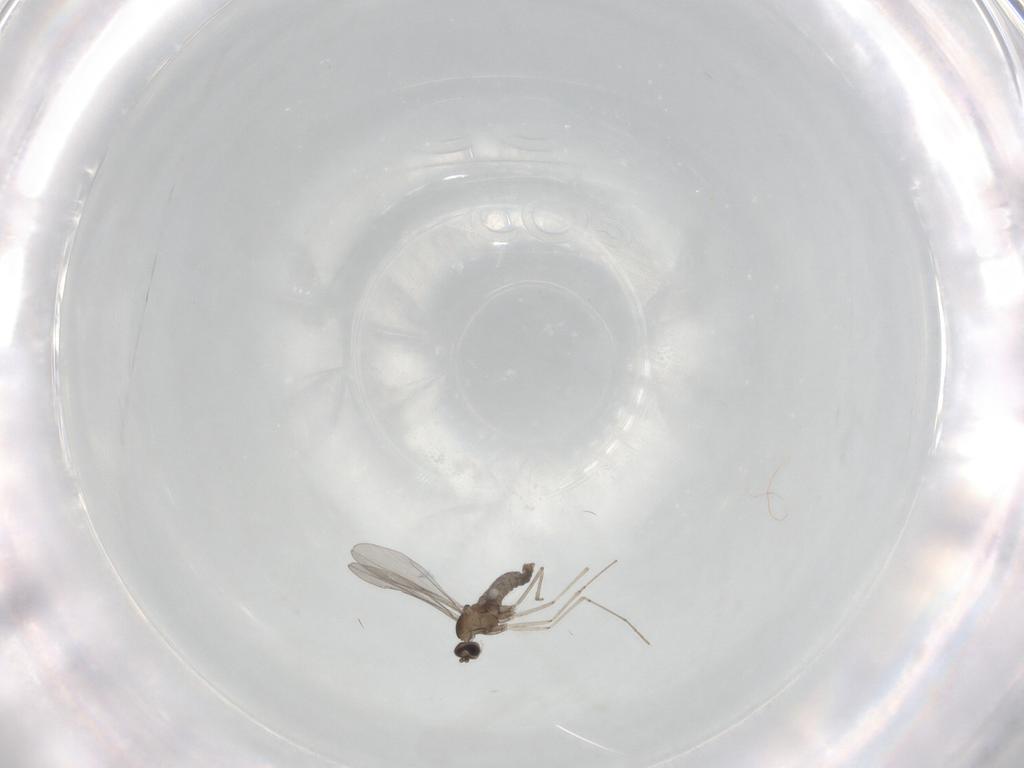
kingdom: Animalia
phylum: Arthropoda
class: Insecta
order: Diptera
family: Cecidomyiidae
